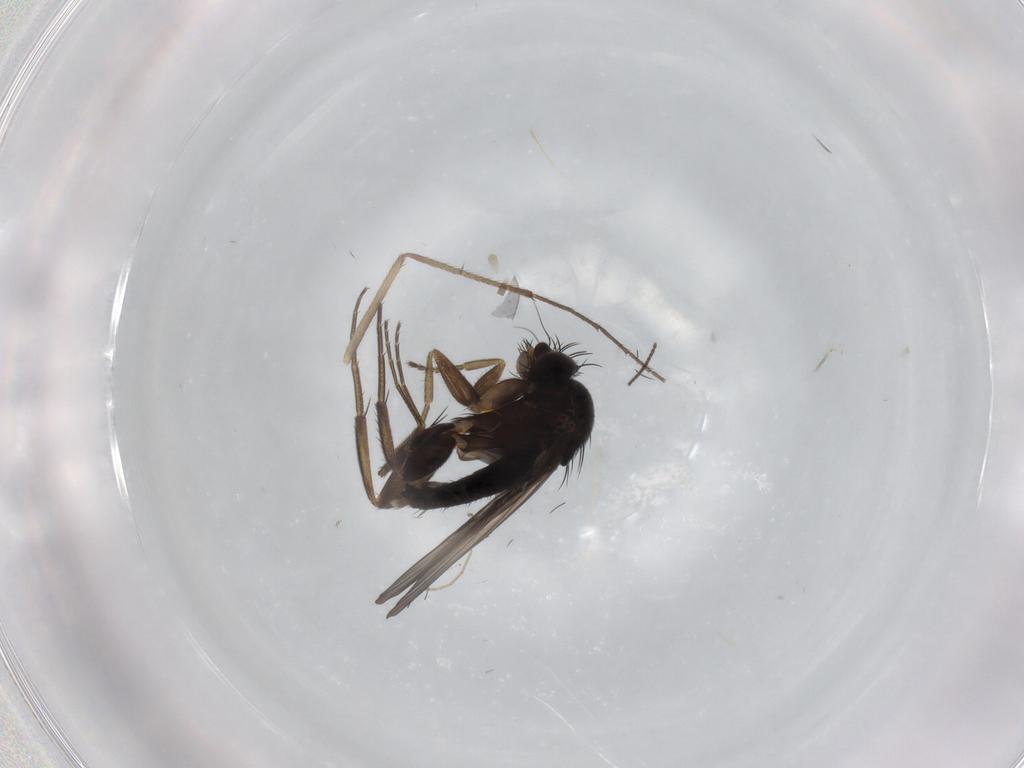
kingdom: Animalia
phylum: Arthropoda
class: Insecta
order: Diptera
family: Phoridae
